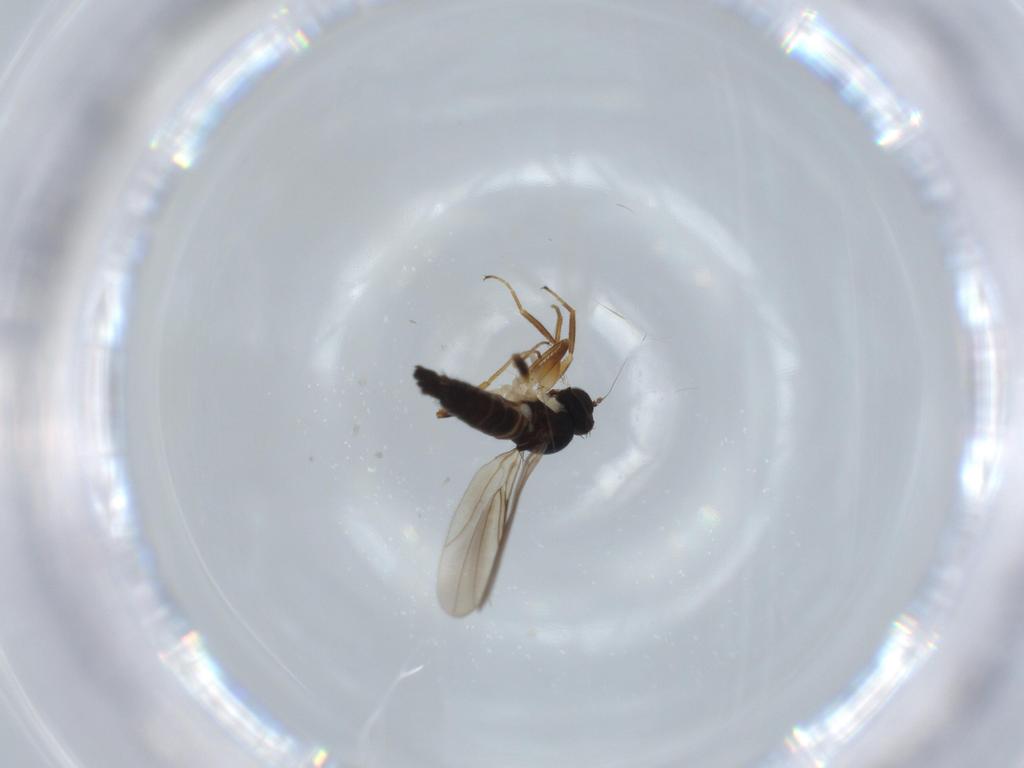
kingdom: Animalia
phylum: Arthropoda
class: Insecta
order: Diptera
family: Hybotidae
